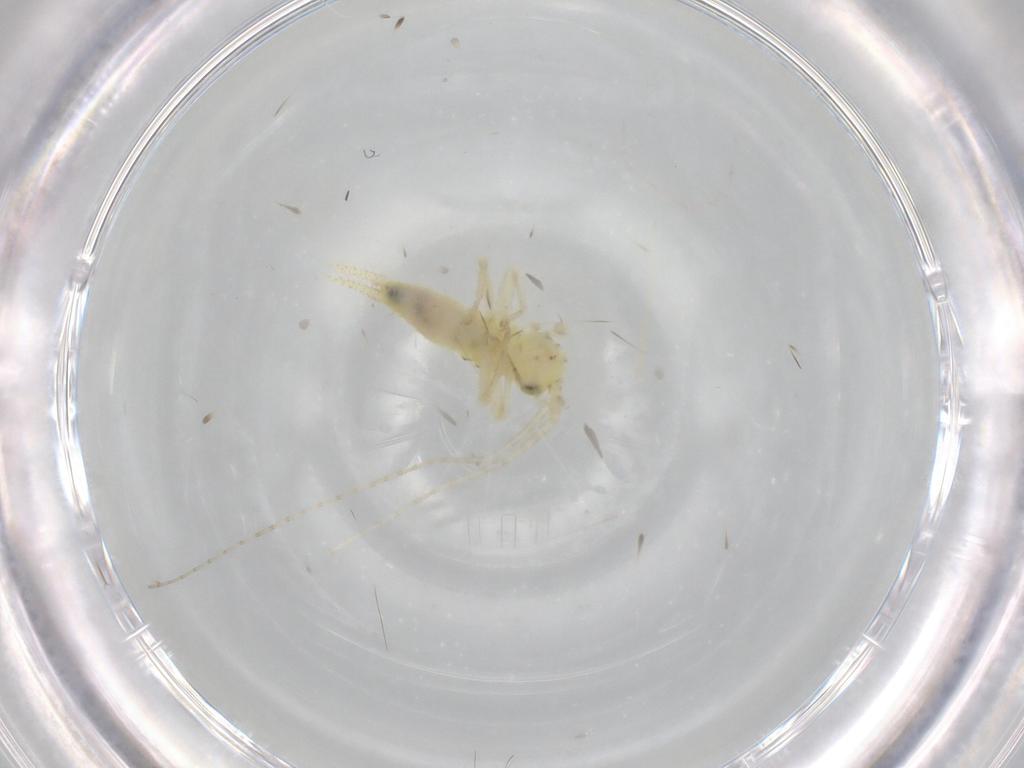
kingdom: Animalia
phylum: Arthropoda
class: Insecta
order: Orthoptera
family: Trigonidiidae
